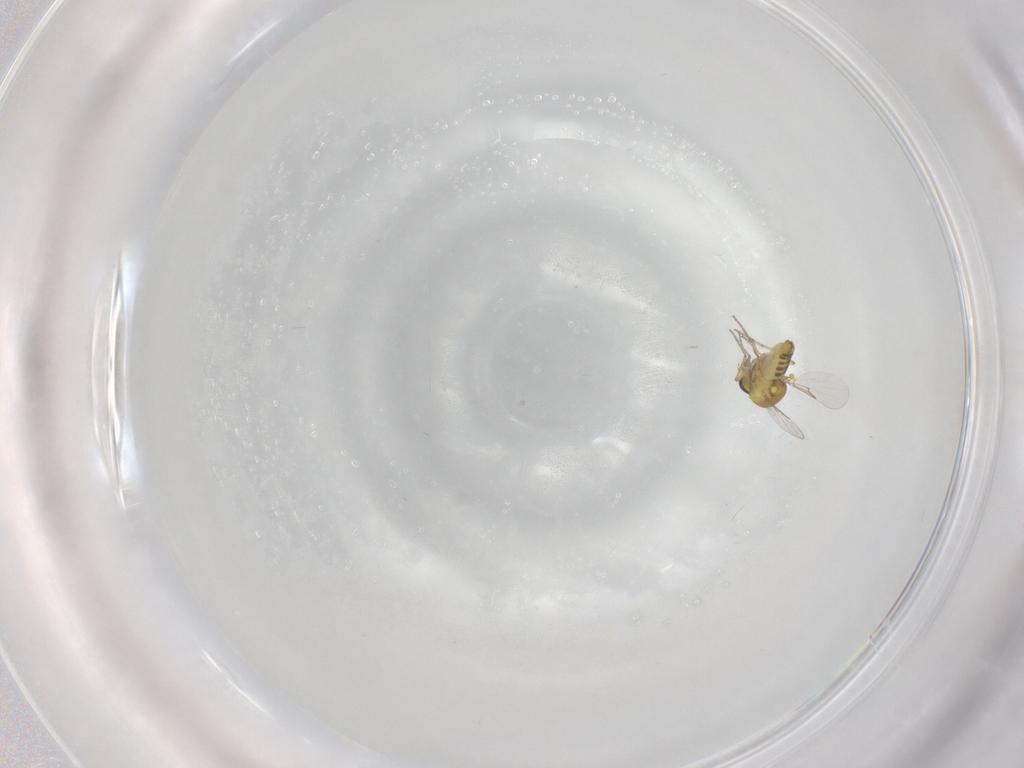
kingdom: Animalia
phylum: Arthropoda
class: Insecta
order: Diptera
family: Ceratopogonidae
